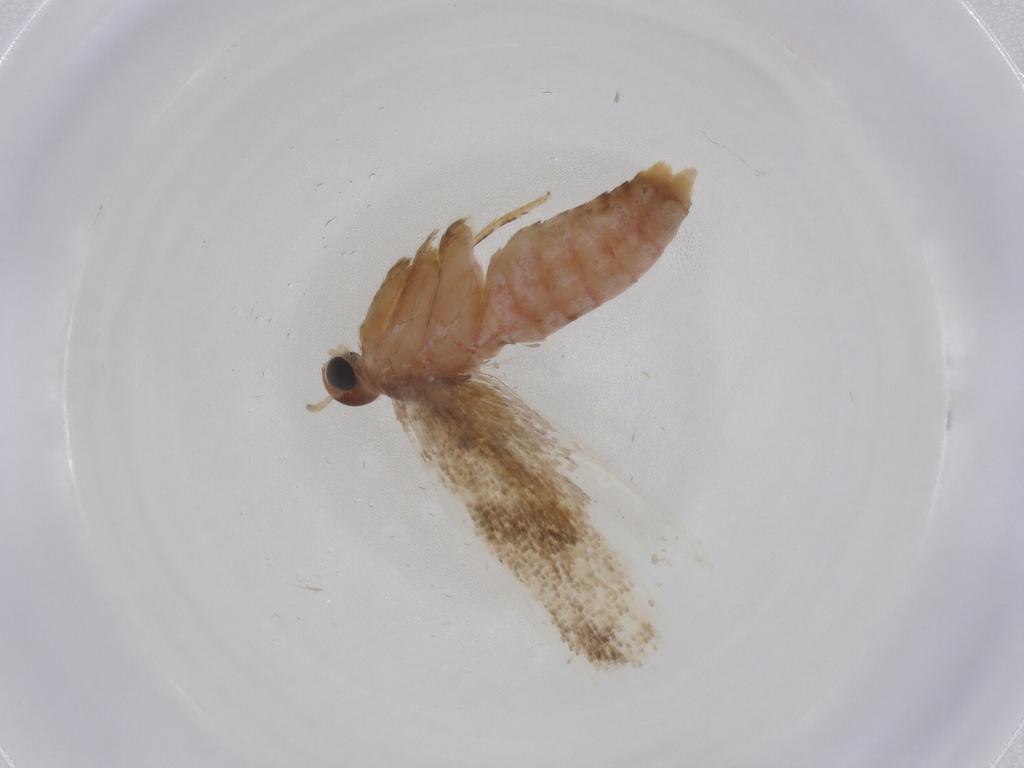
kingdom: Animalia
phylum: Arthropoda
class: Insecta
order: Lepidoptera
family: Gelechiidae
